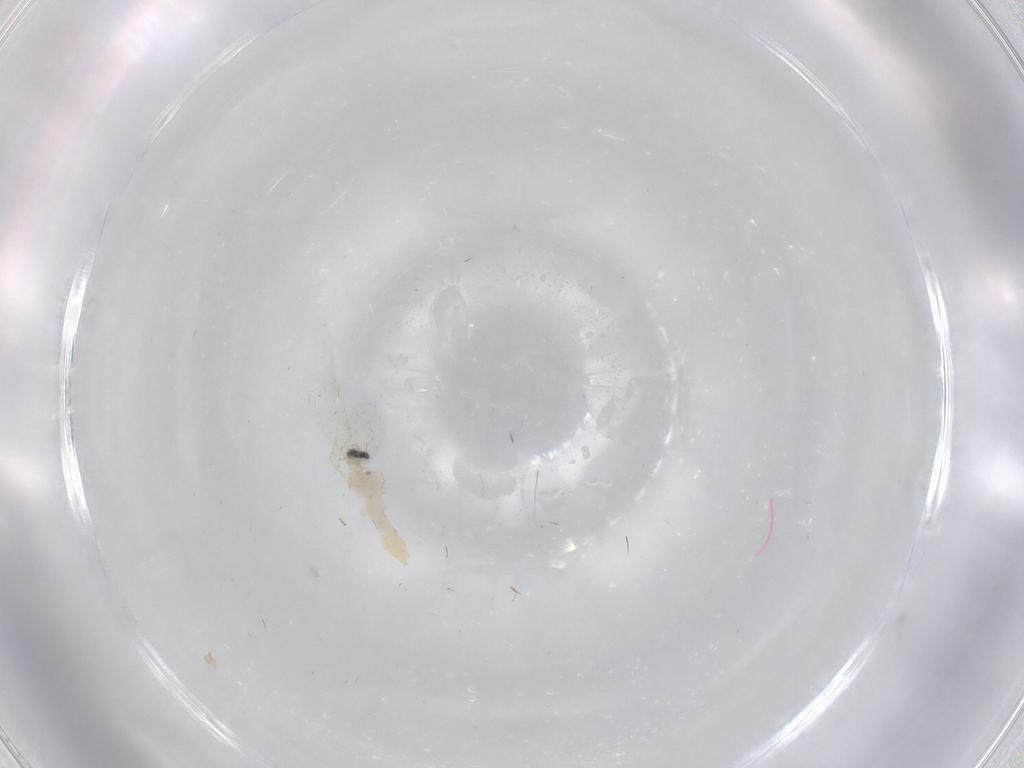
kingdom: Animalia
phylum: Arthropoda
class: Insecta
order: Diptera
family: Cecidomyiidae
